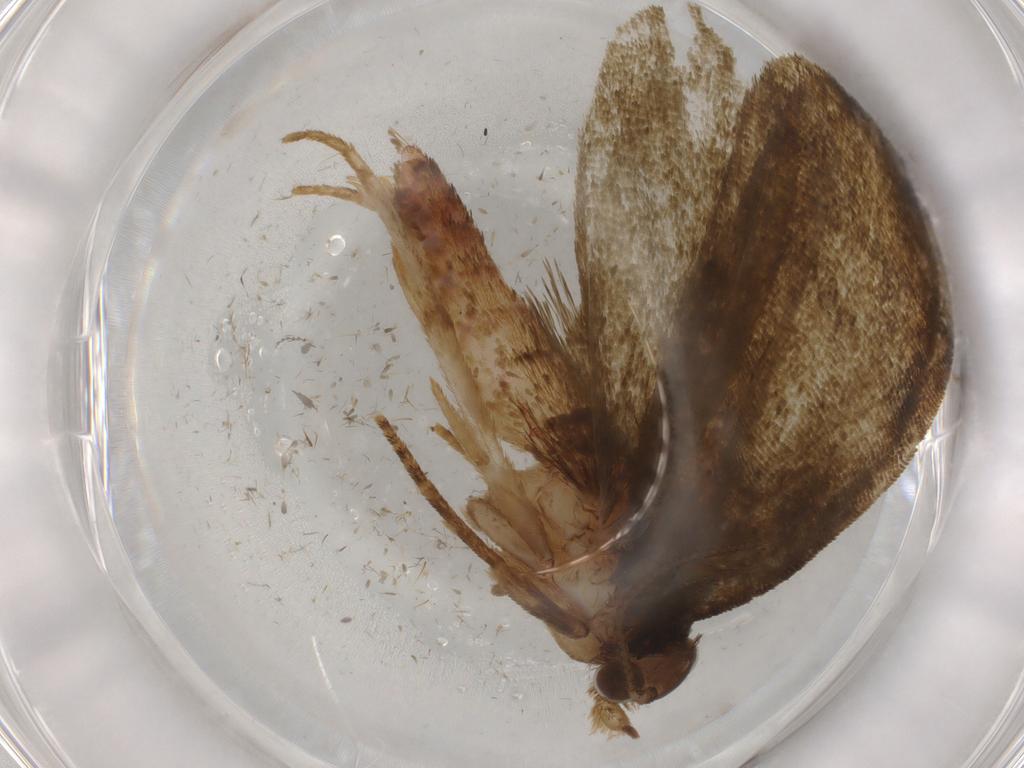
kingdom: Animalia
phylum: Arthropoda
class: Insecta
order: Lepidoptera
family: Geometridae
